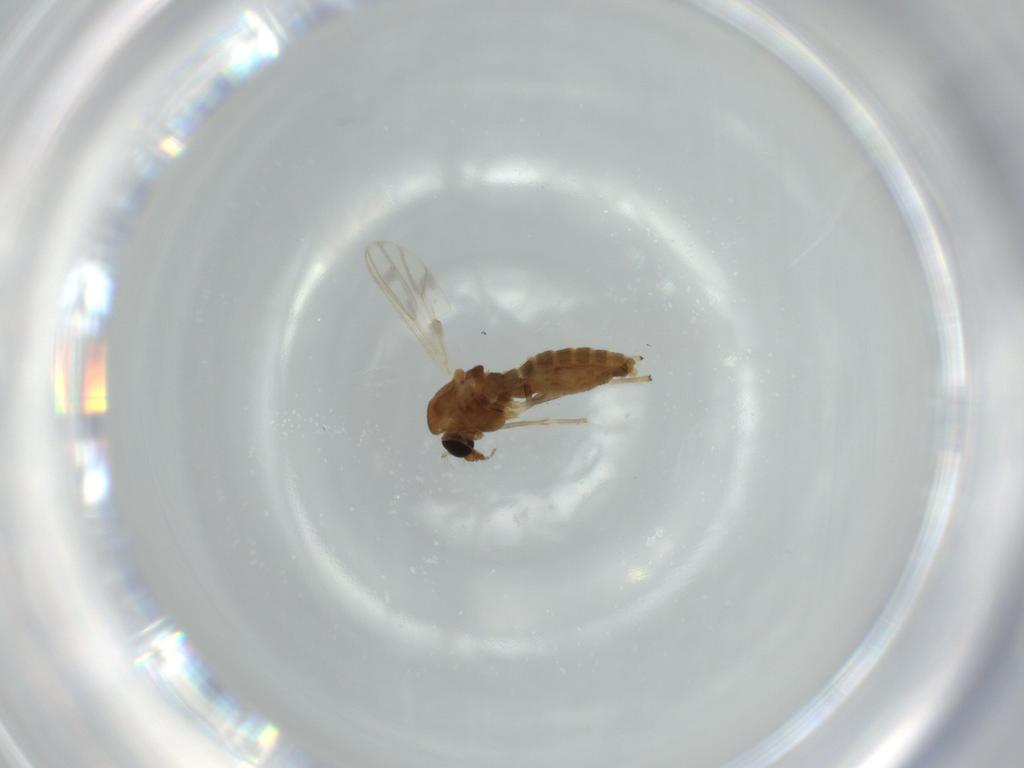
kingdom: Animalia
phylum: Arthropoda
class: Insecta
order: Diptera
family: Chironomidae
